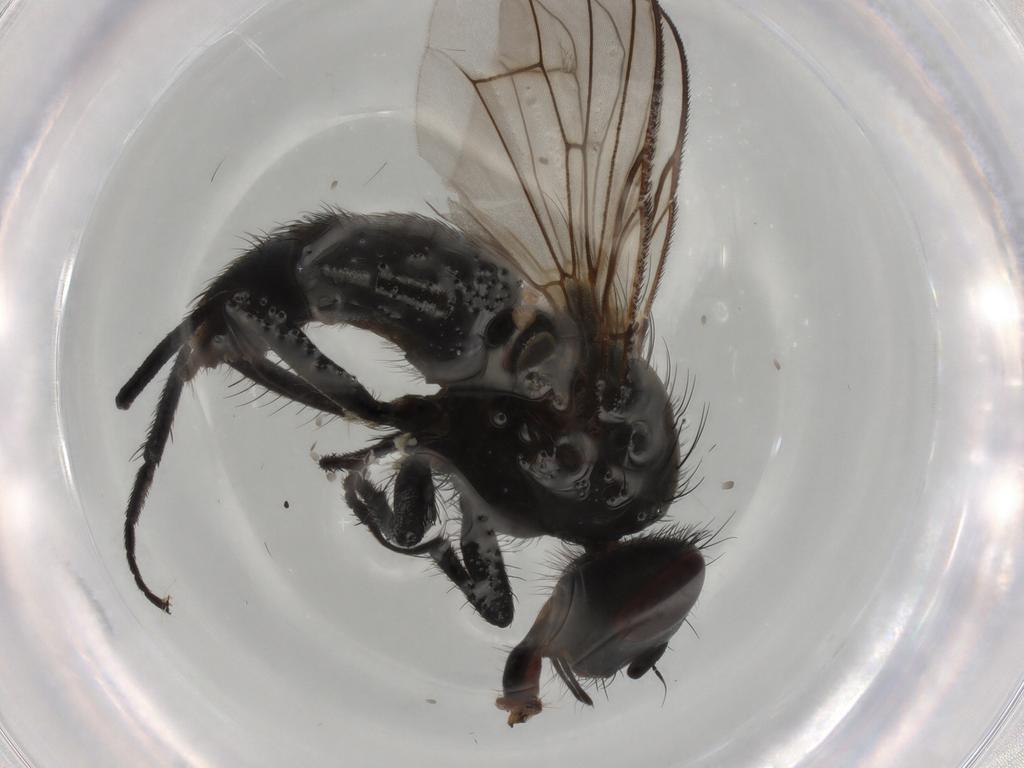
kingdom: Animalia
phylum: Arthropoda
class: Insecta
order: Diptera
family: Muscidae
